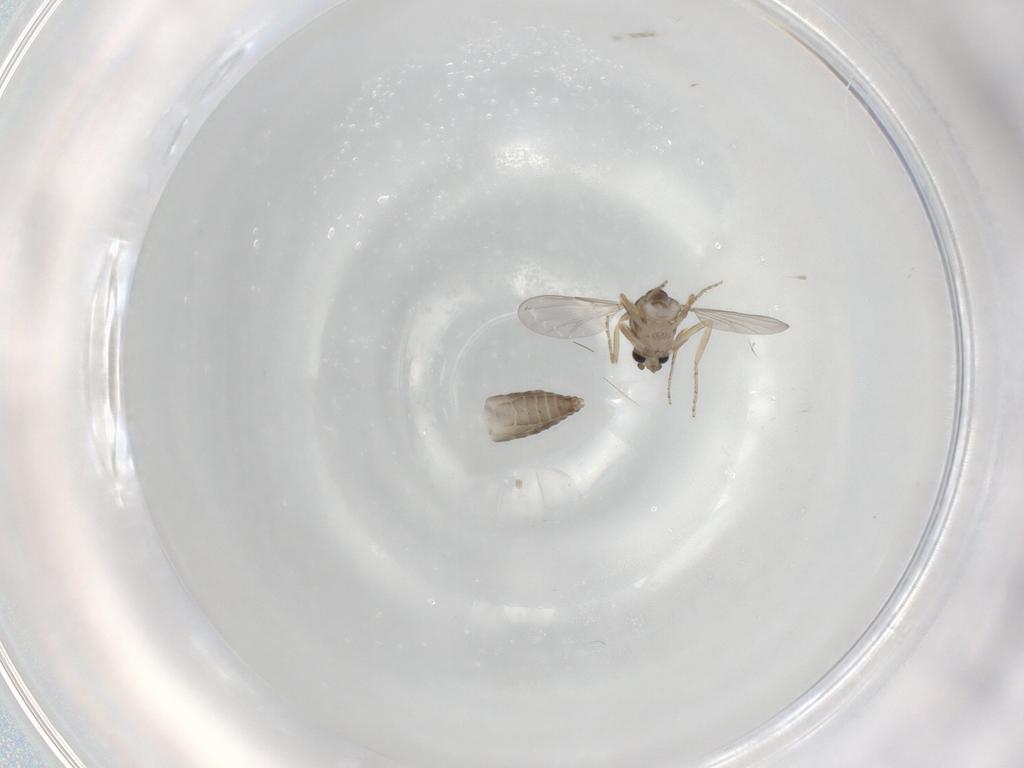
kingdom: Animalia
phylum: Arthropoda
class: Insecta
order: Diptera
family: Ceratopogonidae
